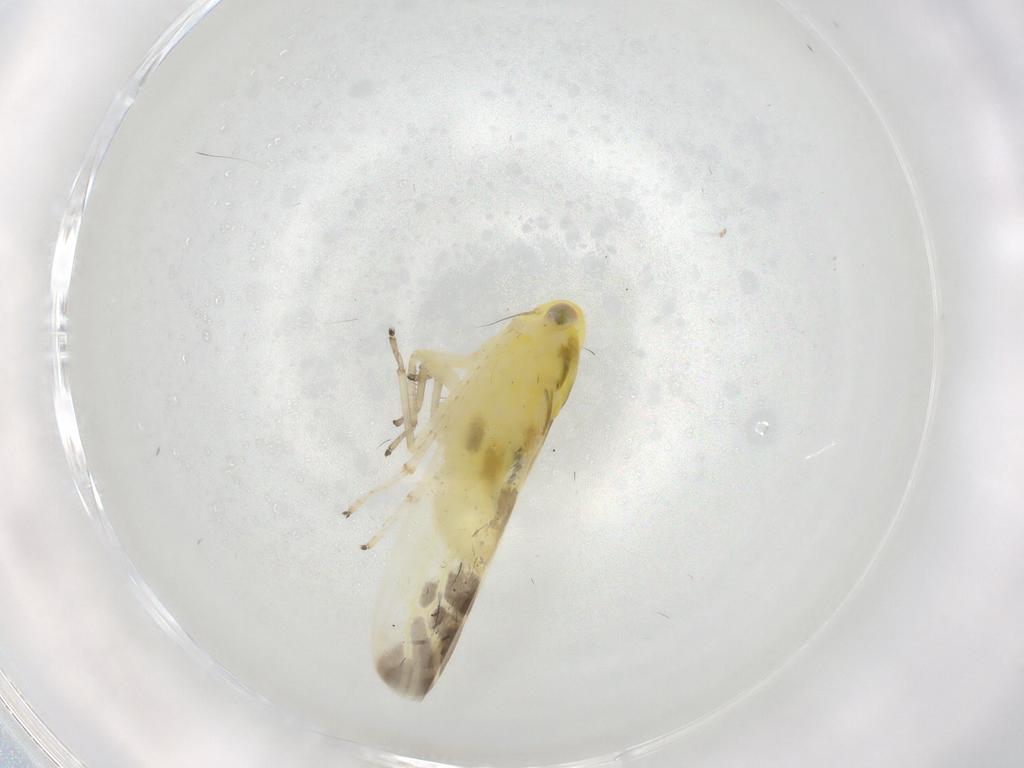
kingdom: Animalia
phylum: Arthropoda
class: Insecta
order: Hemiptera
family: Cicadellidae
